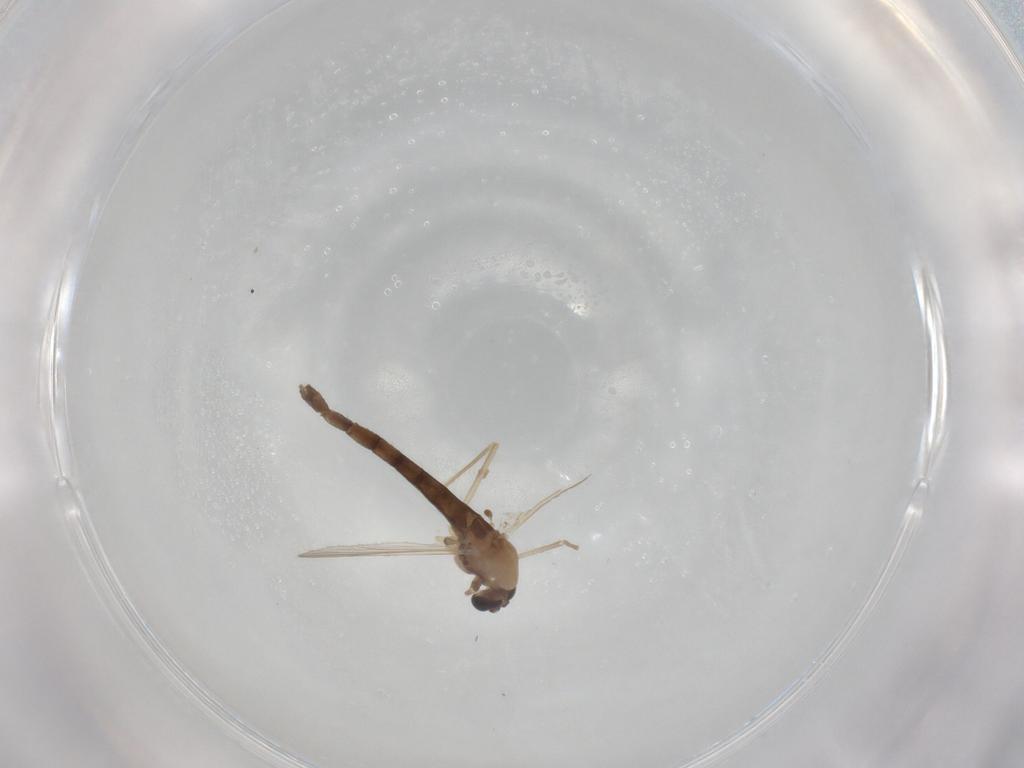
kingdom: Animalia
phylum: Arthropoda
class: Insecta
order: Diptera
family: Chironomidae
